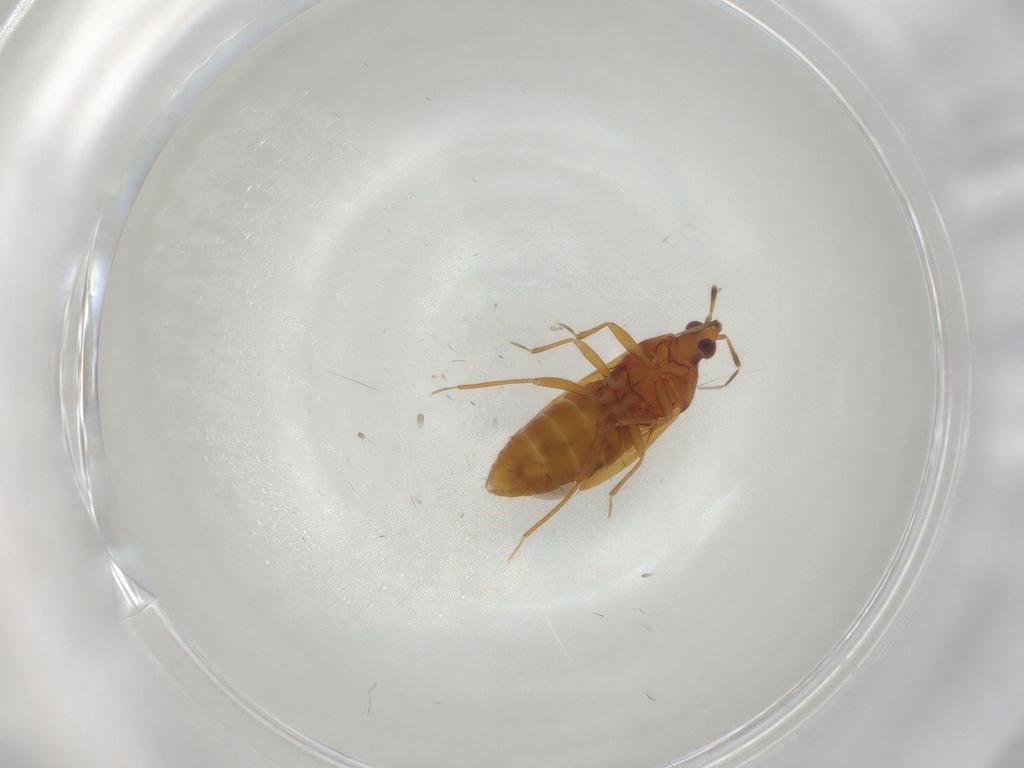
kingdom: Animalia
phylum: Arthropoda
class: Insecta
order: Hemiptera
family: Anthocoridae
